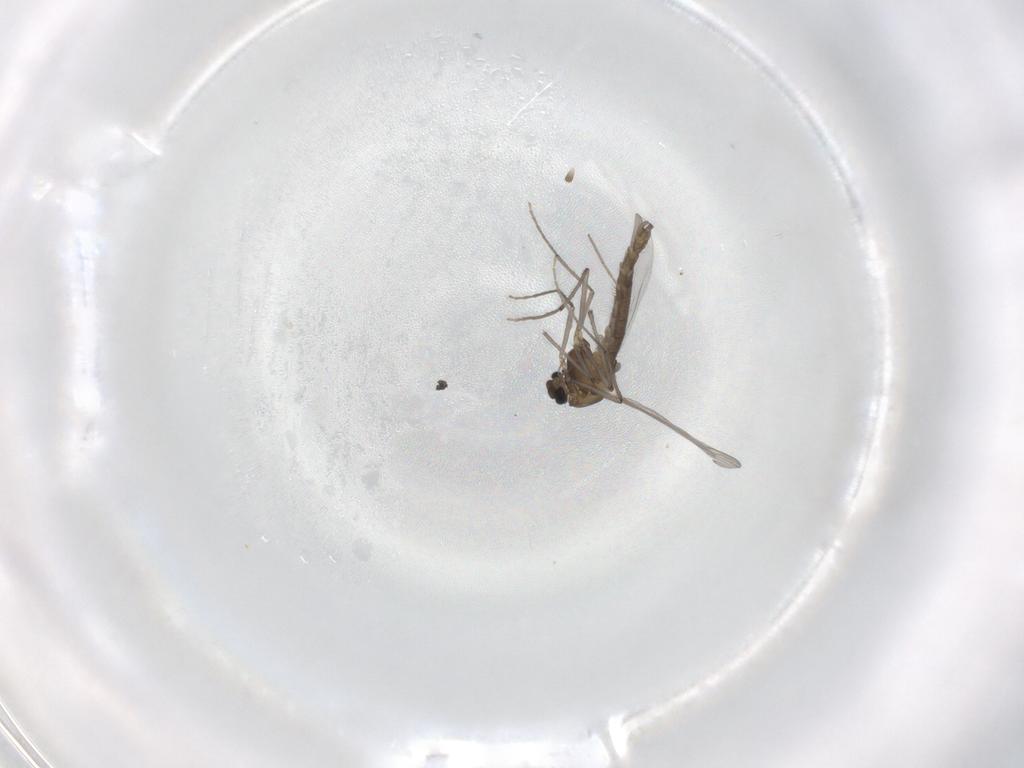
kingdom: Animalia
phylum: Arthropoda
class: Insecta
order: Diptera
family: Chironomidae
